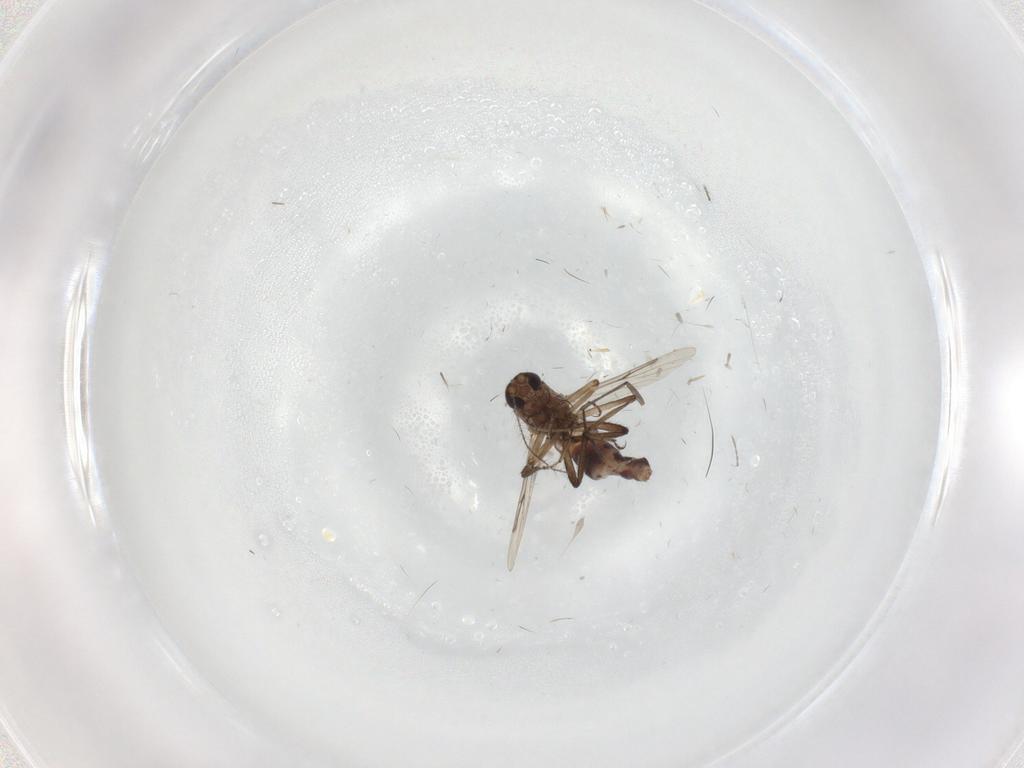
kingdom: Animalia
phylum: Arthropoda
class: Insecta
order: Diptera
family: Ceratopogonidae
